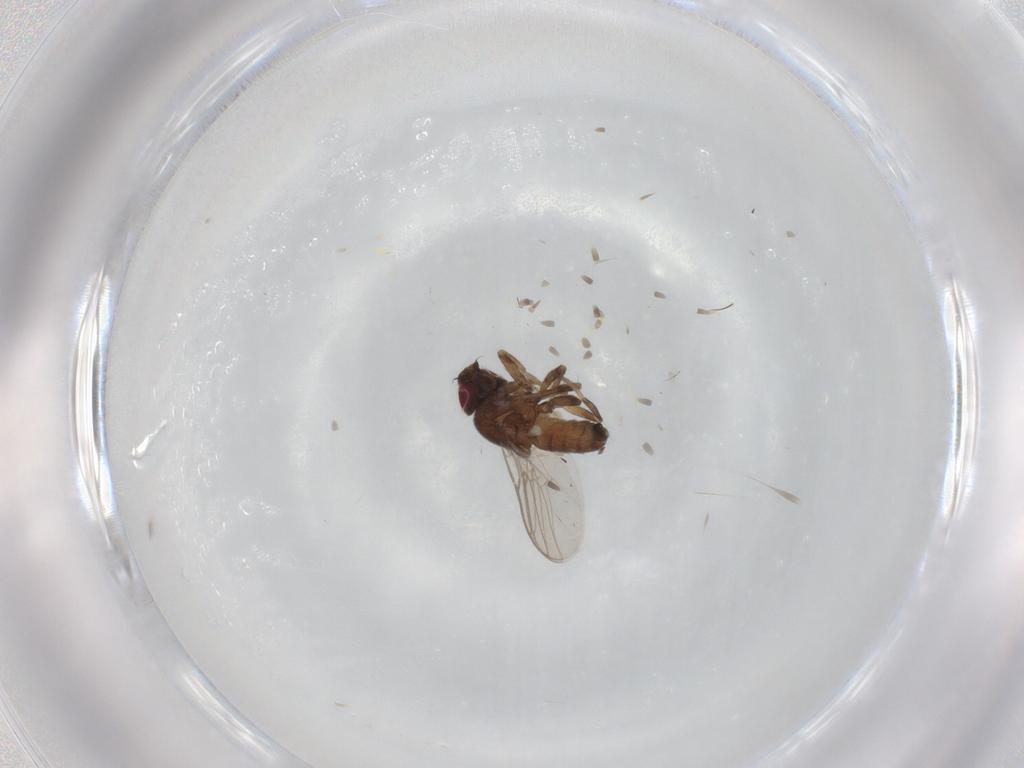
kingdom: Animalia
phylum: Arthropoda
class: Insecta
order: Diptera
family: Chloropidae
